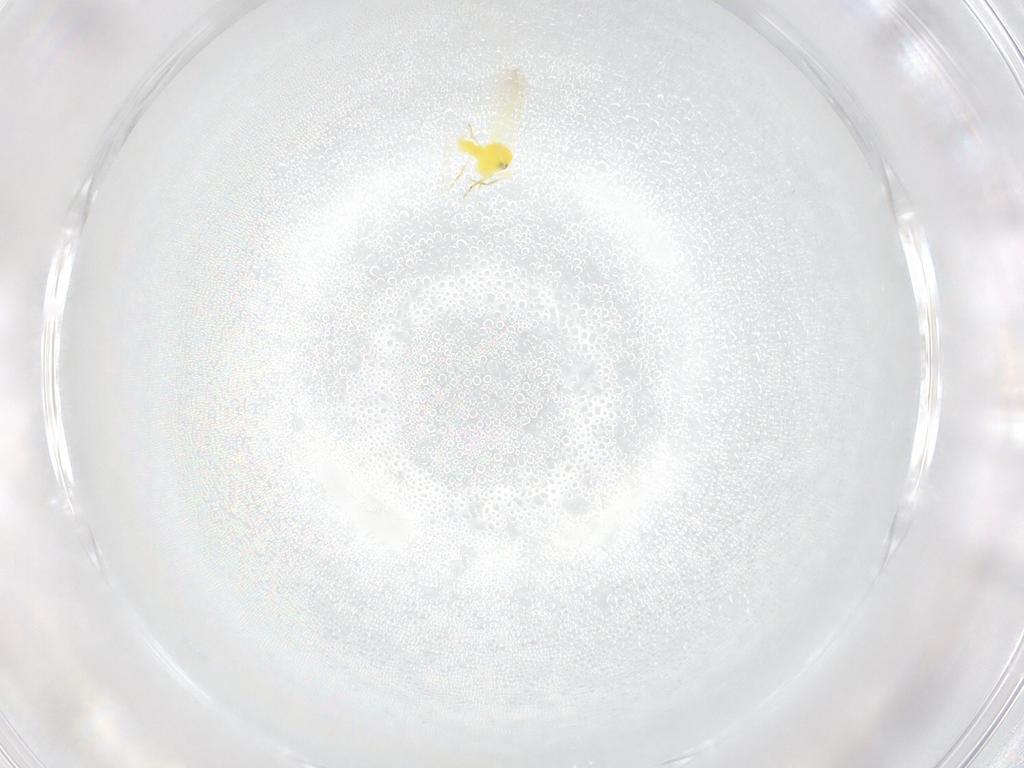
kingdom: Animalia
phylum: Arthropoda
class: Insecta
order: Hemiptera
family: Aleyrodidae
